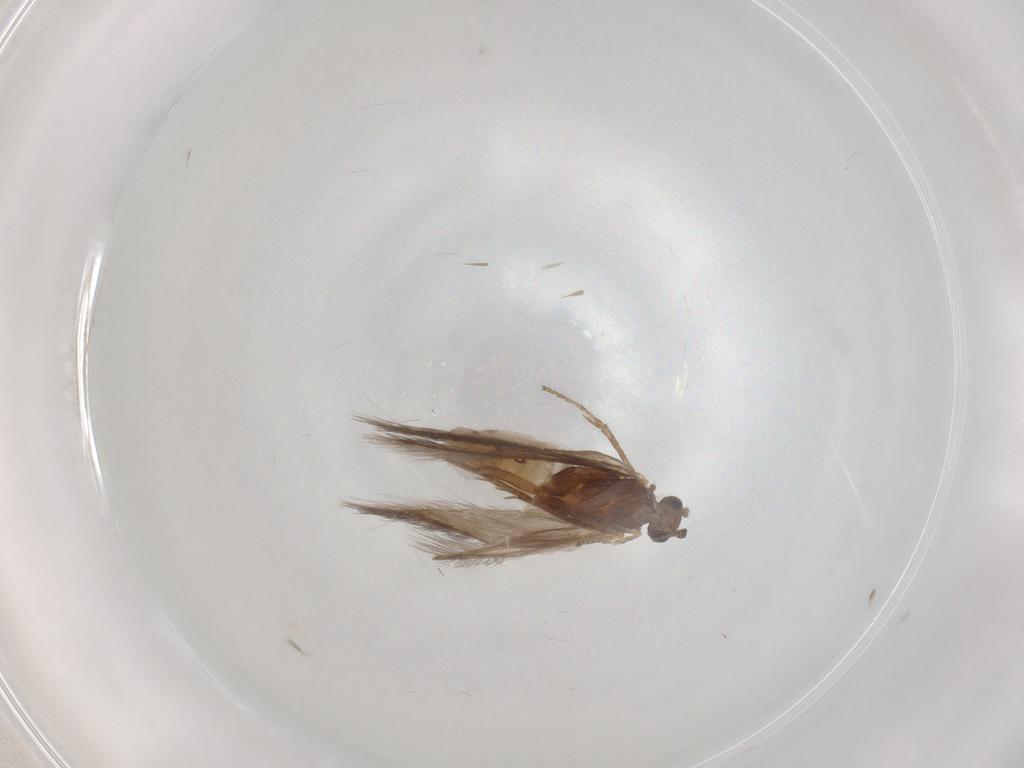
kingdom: Animalia
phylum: Arthropoda
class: Insecta
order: Trichoptera
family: Hydroptilidae
